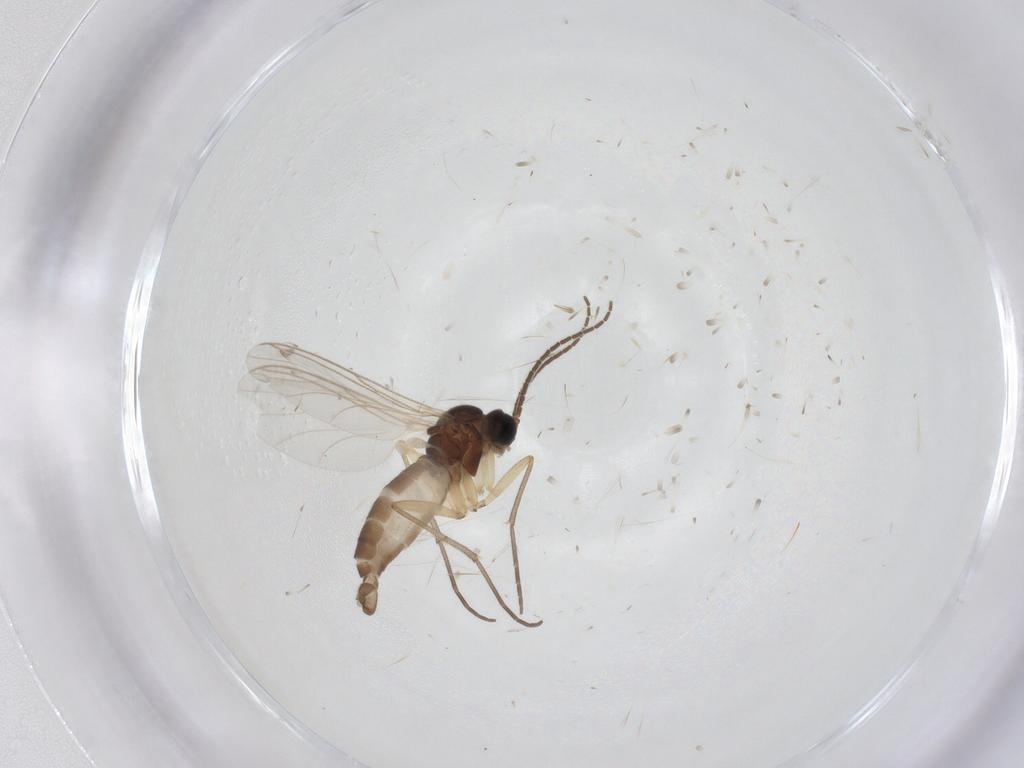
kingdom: Animalia
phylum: Arthropoda
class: Insecta
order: Diptera
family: Sciaridae
